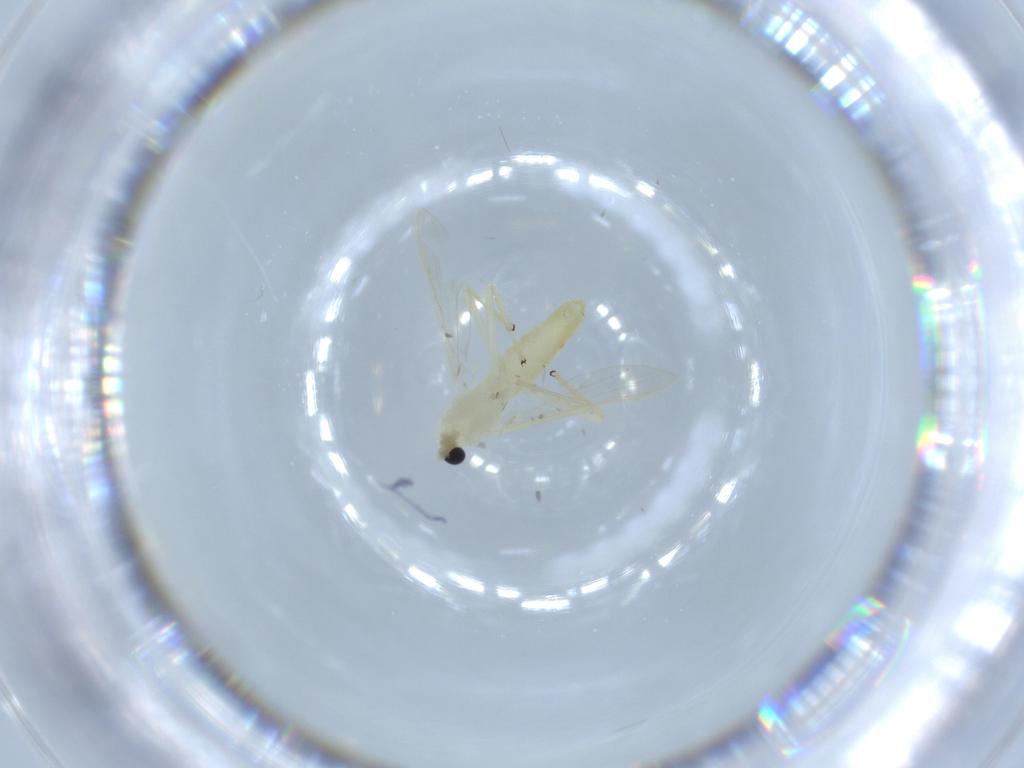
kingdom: Animalia
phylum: Arthropoda
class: Insecta
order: Diptera
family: Chironomidae
